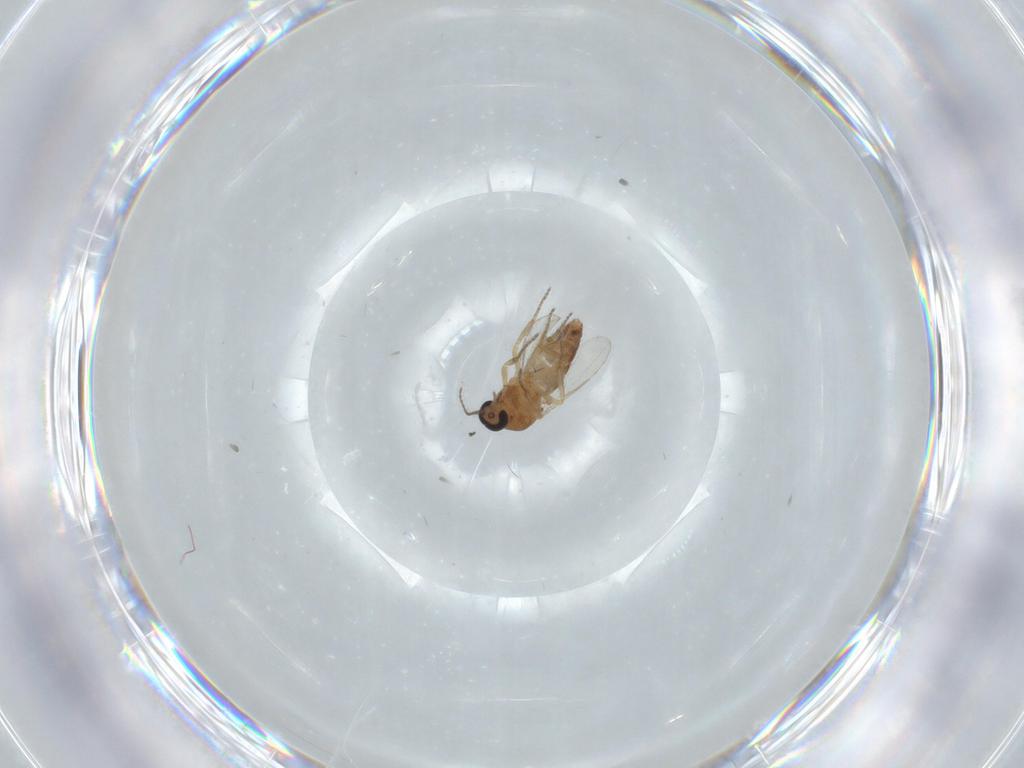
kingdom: Animalia
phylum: Arthropoda
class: Insecta
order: Diptera
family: Ceratopogonidae
